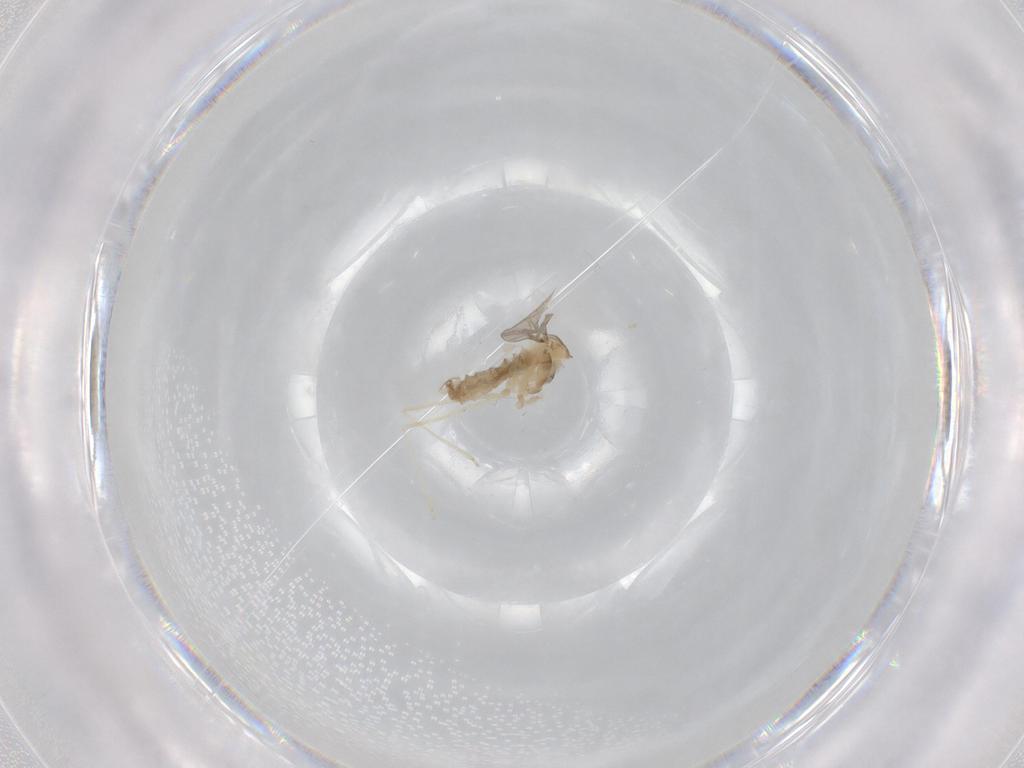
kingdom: Animalia
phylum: Arthropoda
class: Insecta
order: Diptera
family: Cecidomyiidae
